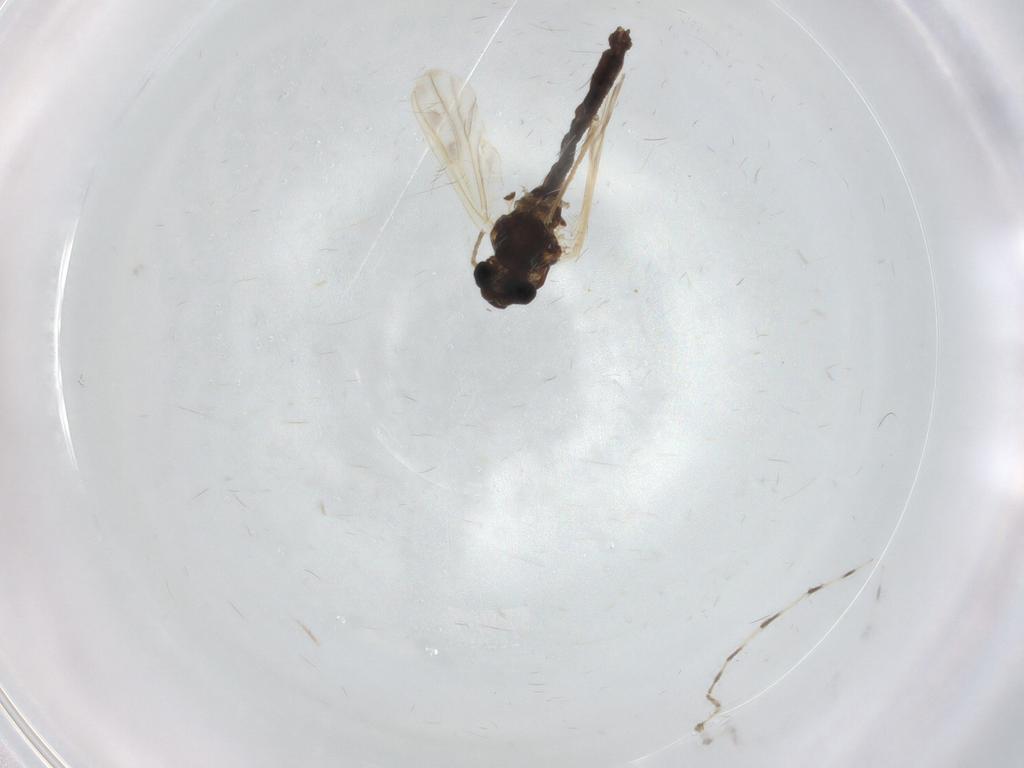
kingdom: Animalia
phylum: Arthropoda
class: Insecta
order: Diptera
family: Chironomidae
